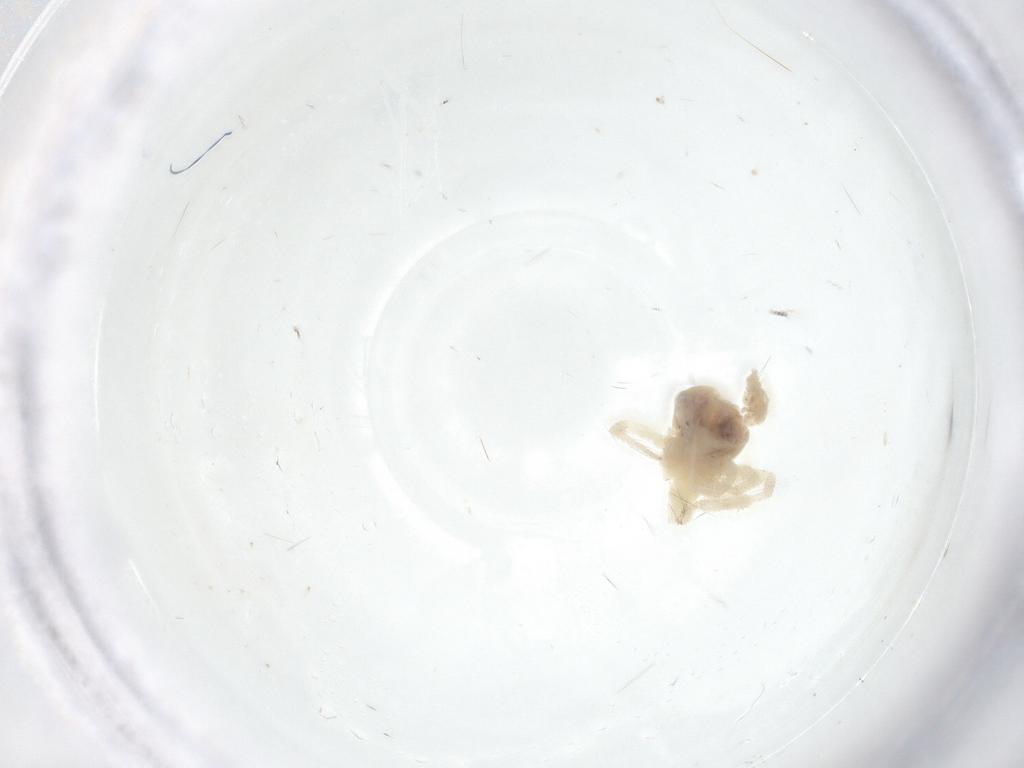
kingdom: Animalia
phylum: Arthropoda
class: Arachnida
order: Trombidiformes
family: Anystidae
